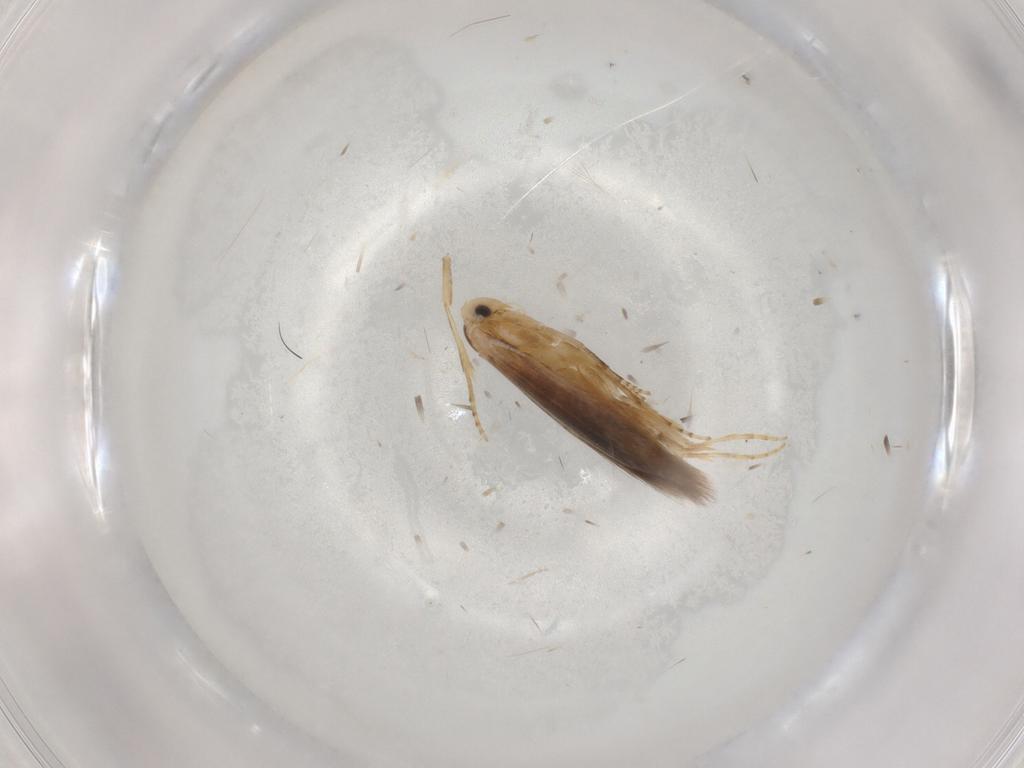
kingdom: Animalia
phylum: Arthropoda
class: Insecta
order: Lepidoptera
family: Bucculatricidae
